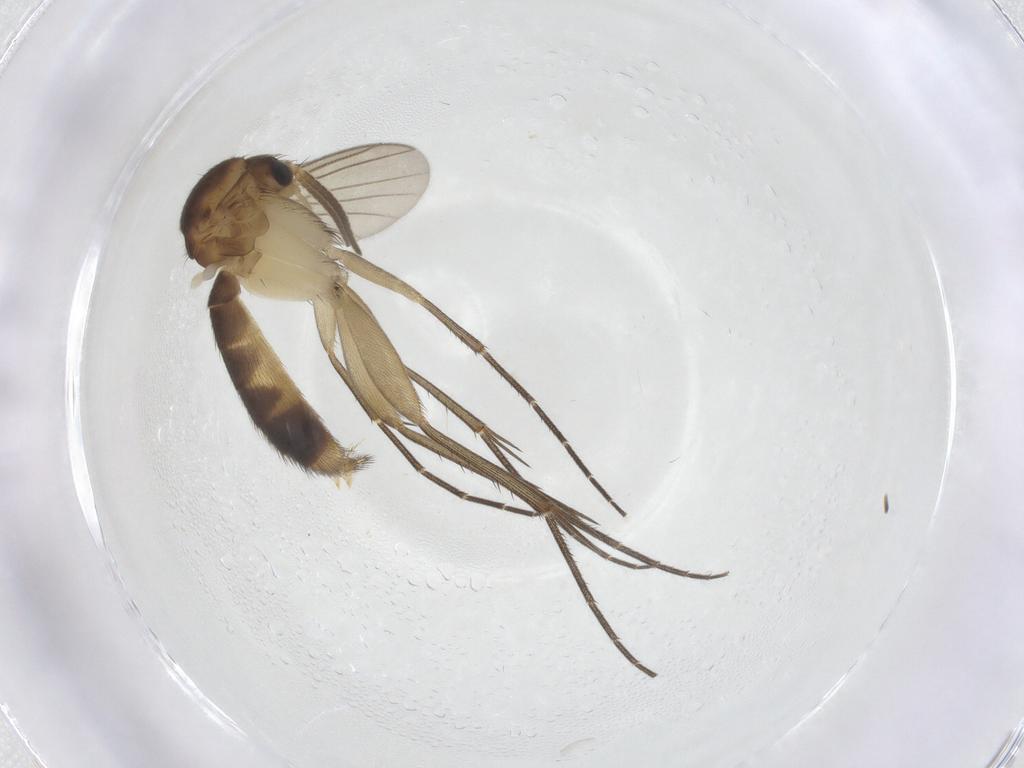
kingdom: Animalia
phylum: Arthropoda
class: Insecta
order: Diptera
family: Mycetophilidae
